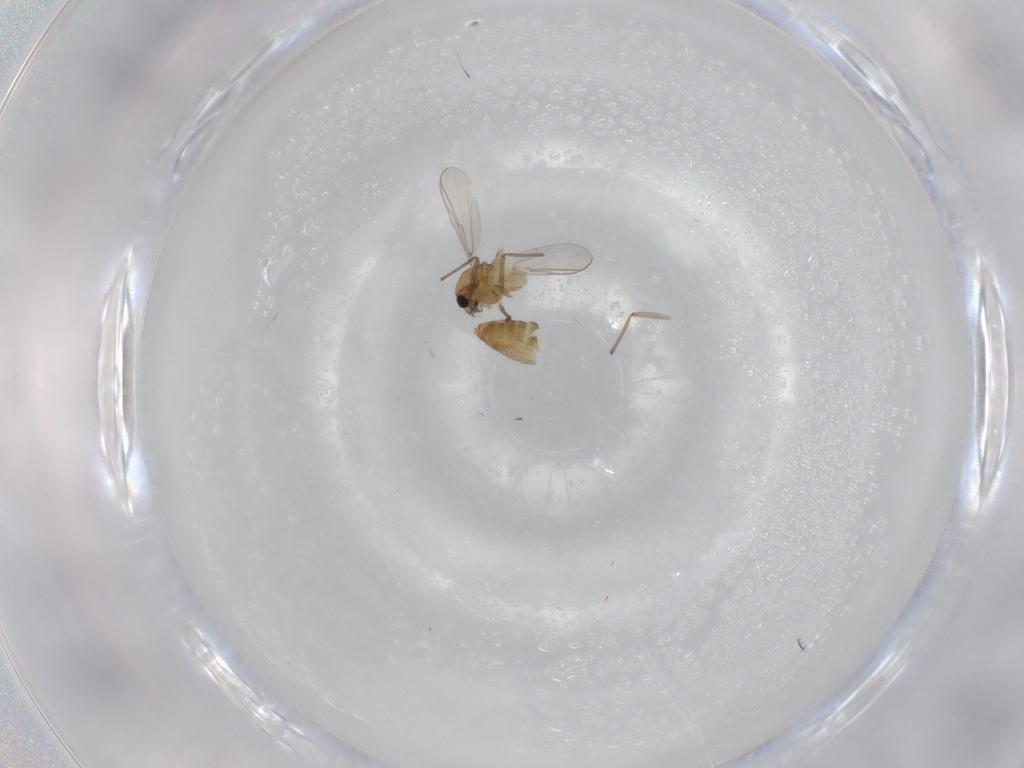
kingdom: Animalia
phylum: Arthropoda
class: Insecta
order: Diptera
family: Chironomidae
